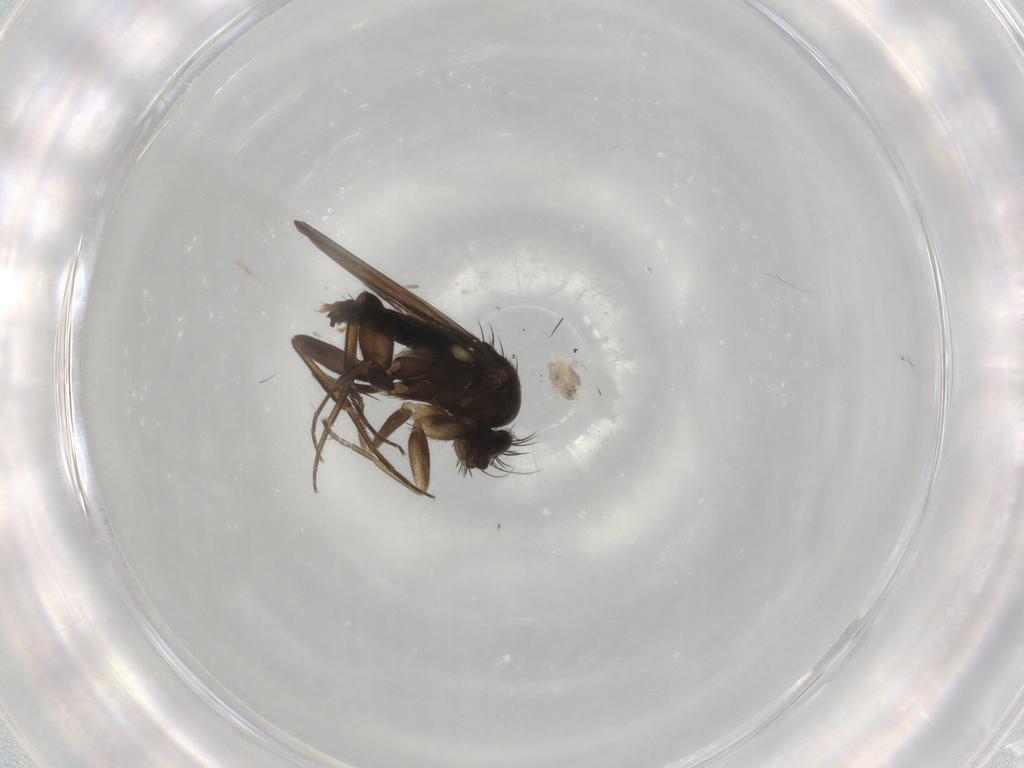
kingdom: Animalia
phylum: Arthropoda
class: Insecta
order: Diptera
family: Phoridae
